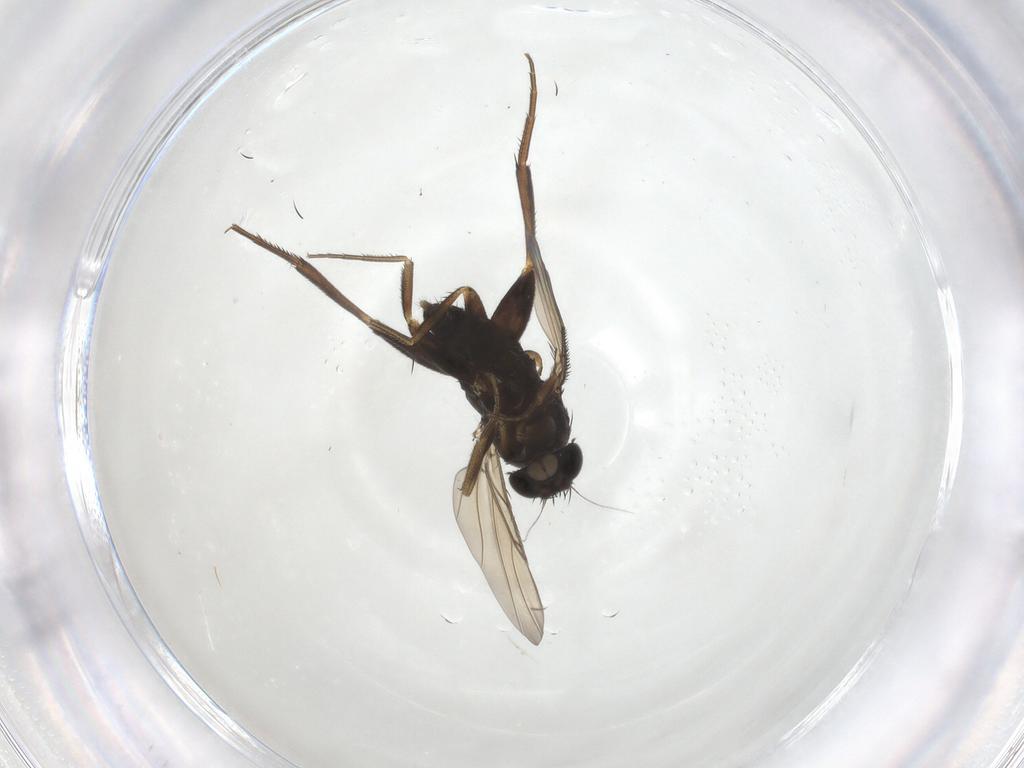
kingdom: Animalia
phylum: Arthropoda
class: Insecta
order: Diptera
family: Phoridae
